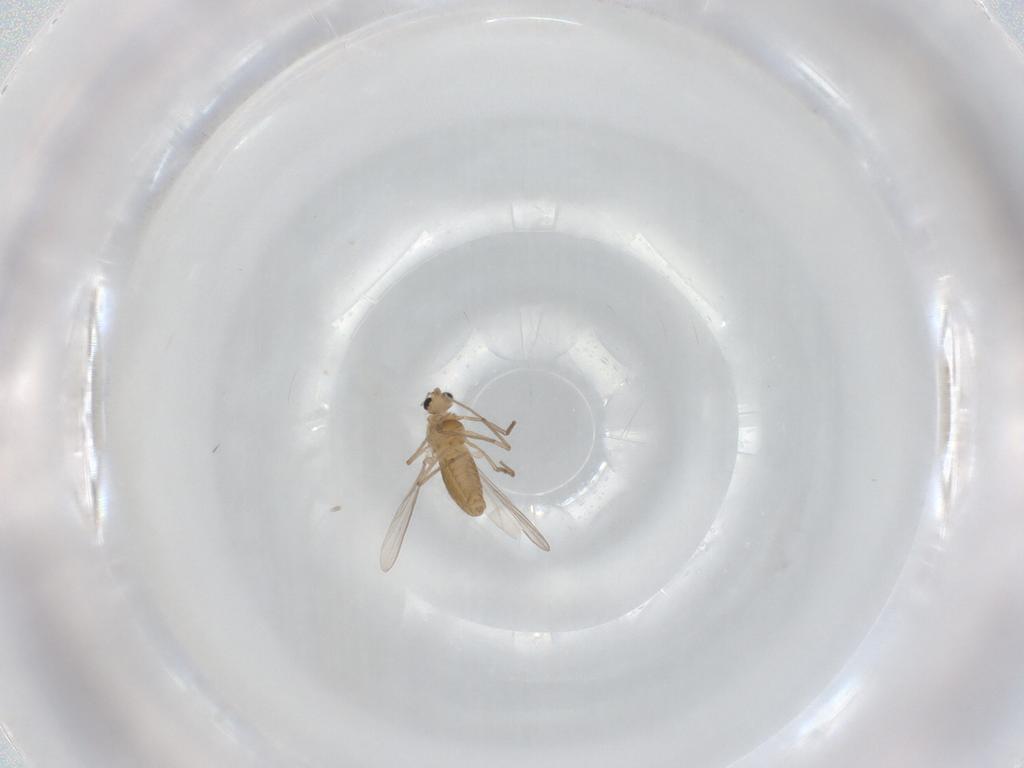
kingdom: Animalia
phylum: Arthropoda
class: Insecta
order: Diptera
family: Chironomidae
